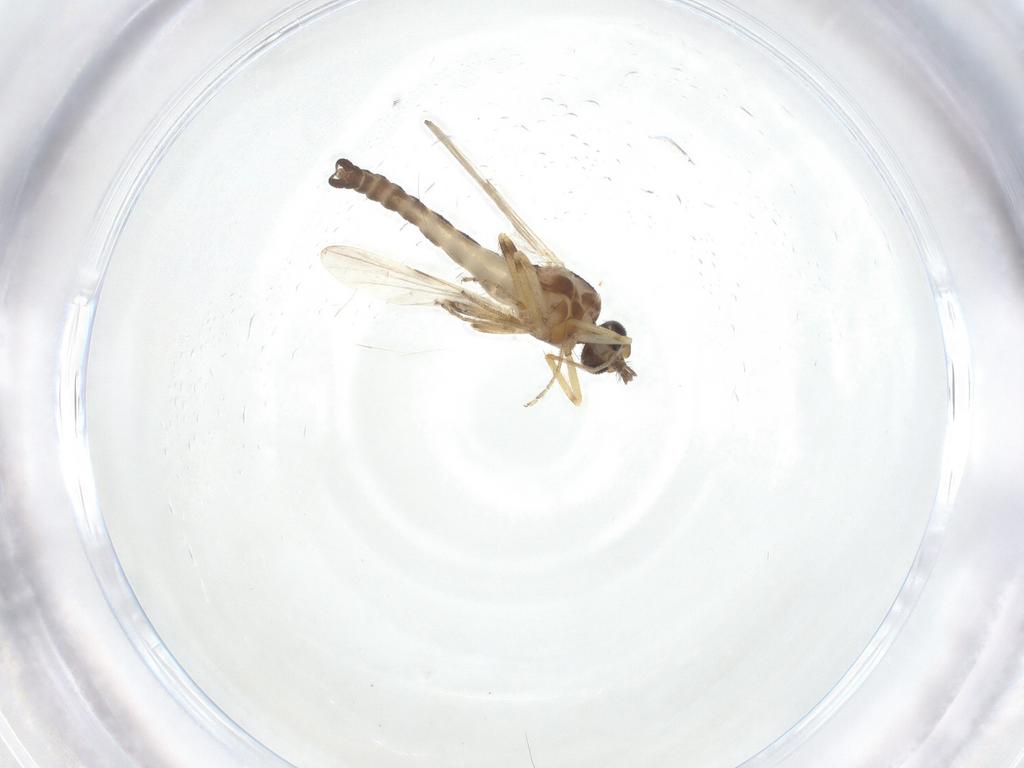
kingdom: Animalia
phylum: Arthropoda
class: Insecta
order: Diptera
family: Ceratopogonidae
